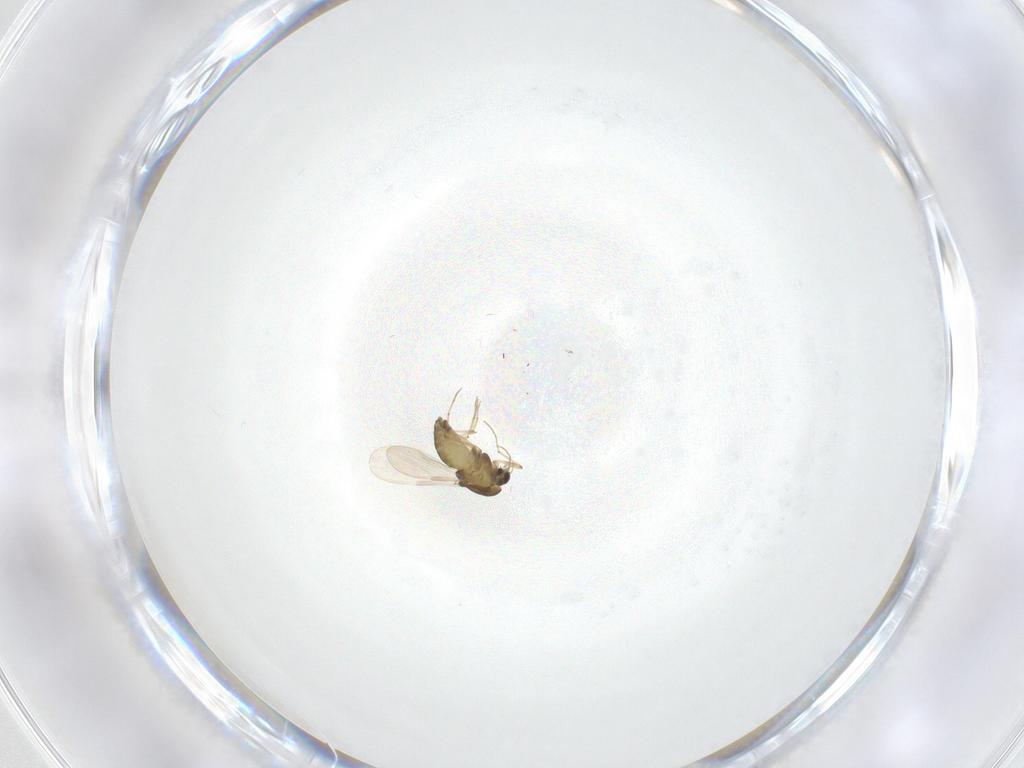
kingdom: Animalia
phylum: Arthropoda
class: Insecta
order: Diptera
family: Chironomidae
